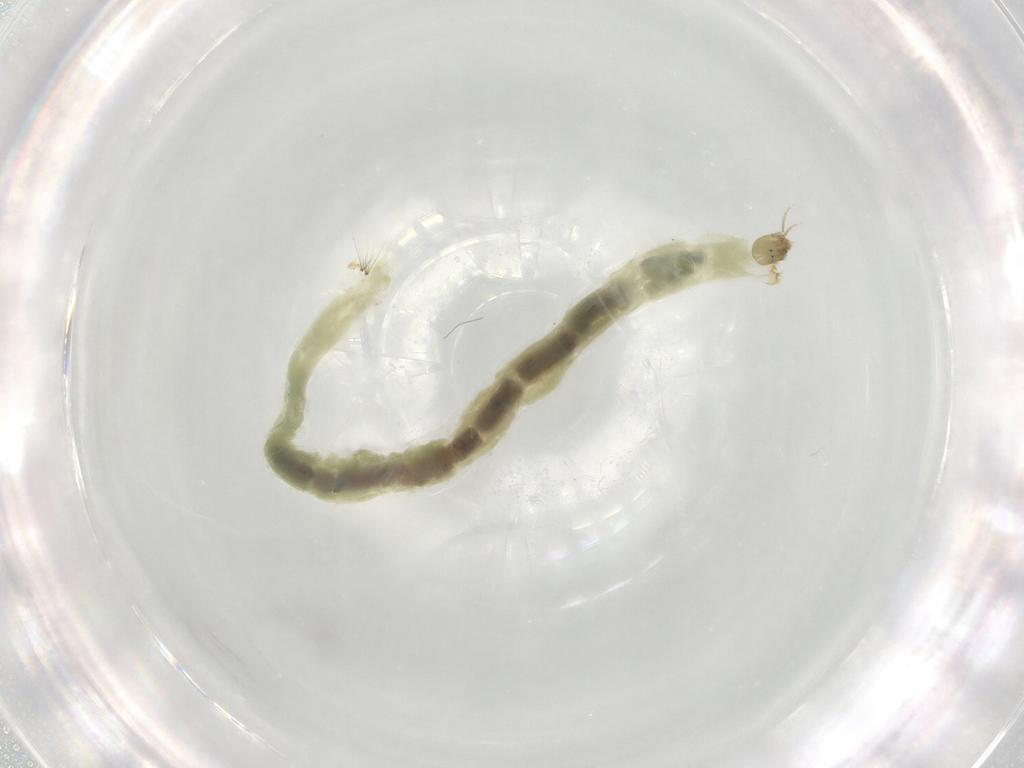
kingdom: Animalia
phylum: Arthropoda
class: Insecta
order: Diptera
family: Chironomidae
